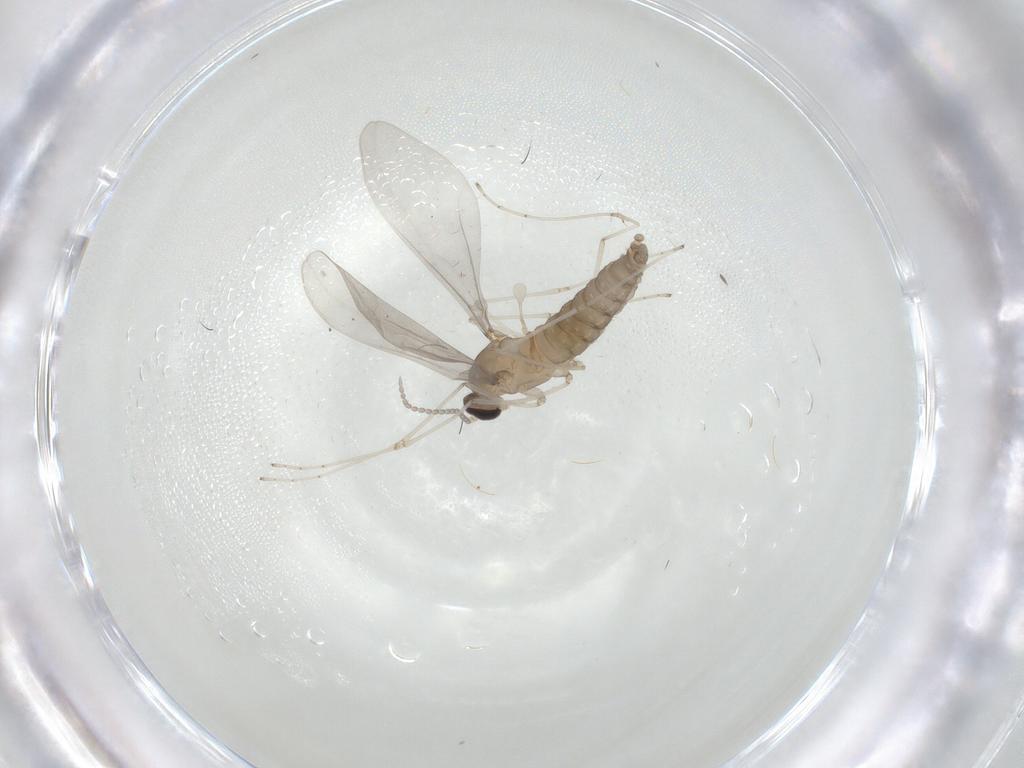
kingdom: Animalia
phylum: Arthropoda
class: Insecta
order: Diptera
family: Cecidomyiidae
